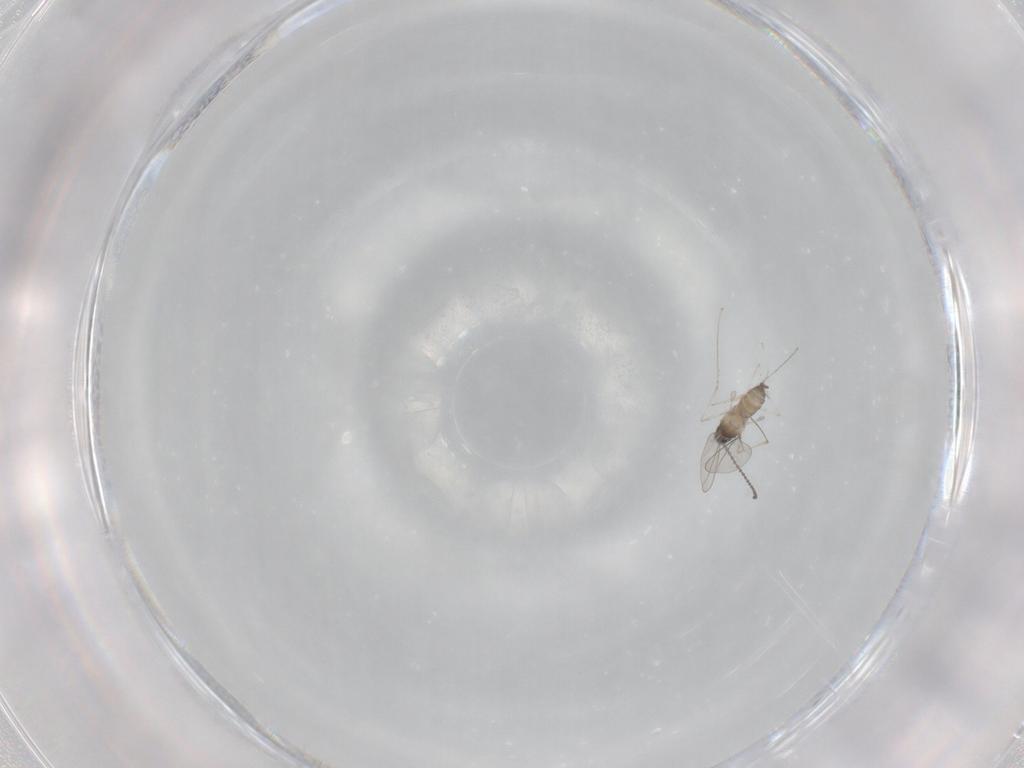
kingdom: Animalia
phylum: Arthropoda
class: Insecta
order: Diptera
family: Cecidomyiidae
